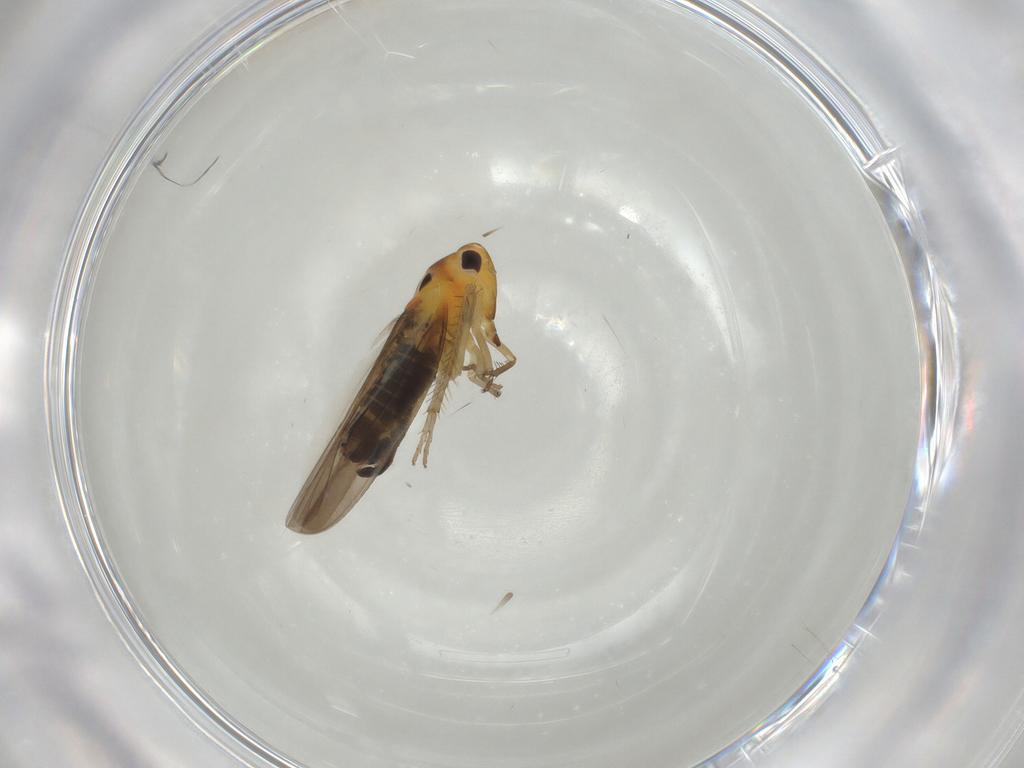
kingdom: Animalia
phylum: Arthropoda
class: Insecta
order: Hemiptera
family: Cicadellidae
